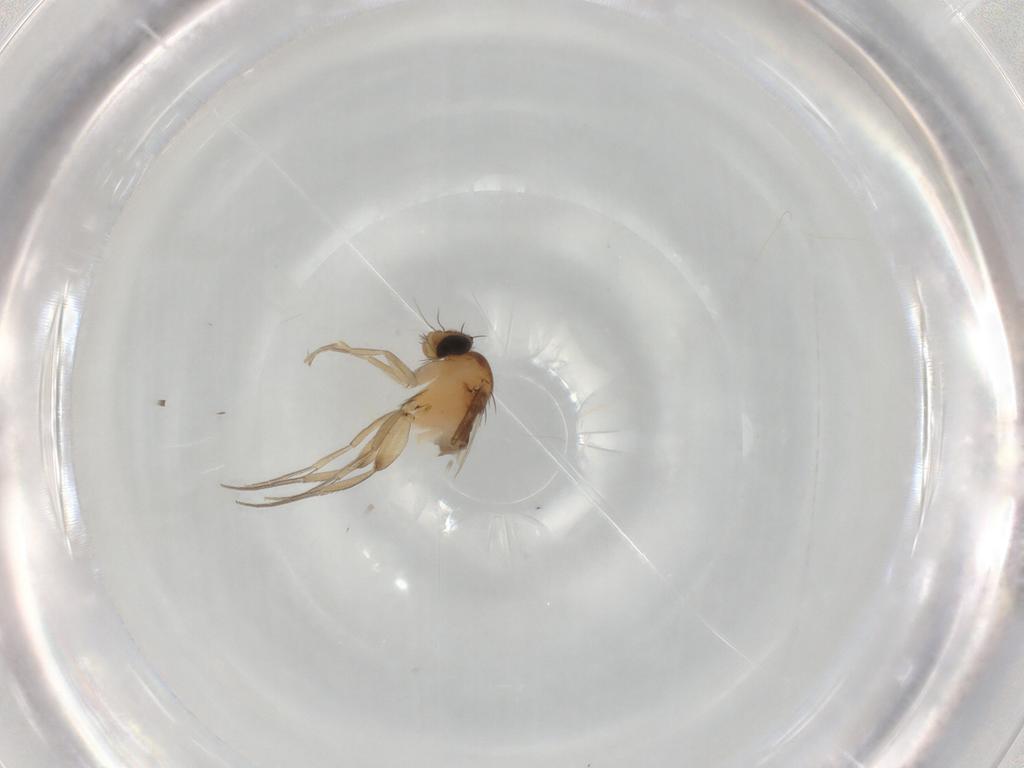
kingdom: Animalia
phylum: Arthropoda
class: Insecta
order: Diptera
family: Phoridae
